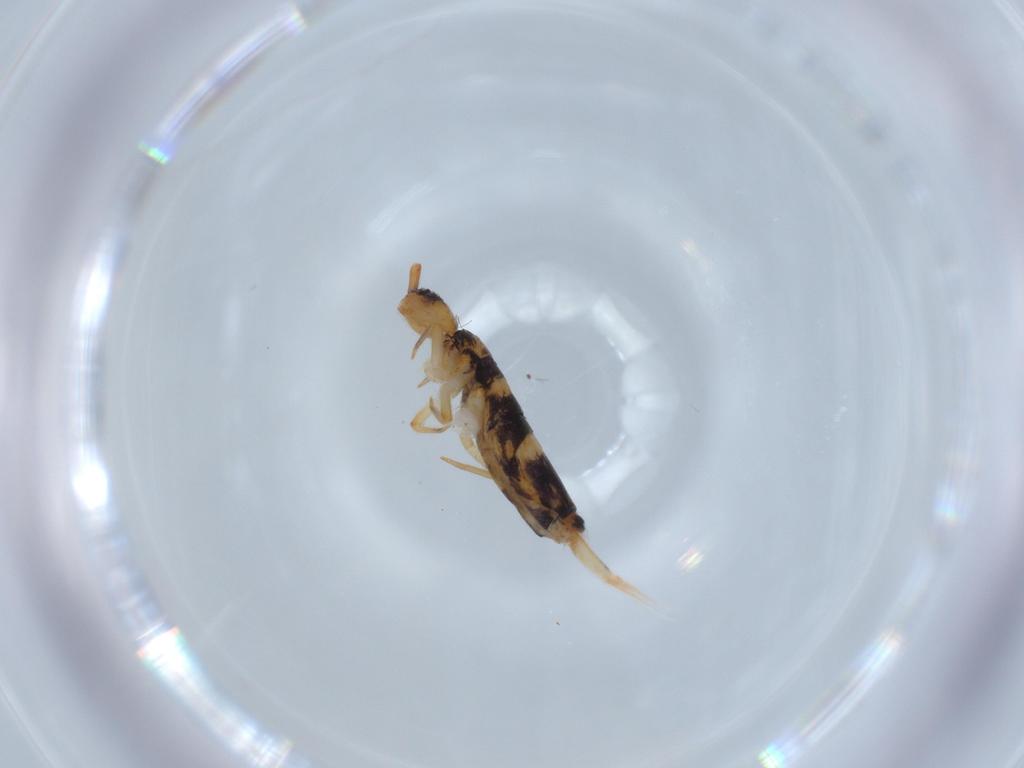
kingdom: Animalia
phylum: Arthropoda
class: Collembola
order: Entomobryomorpha
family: Entomobryidae
